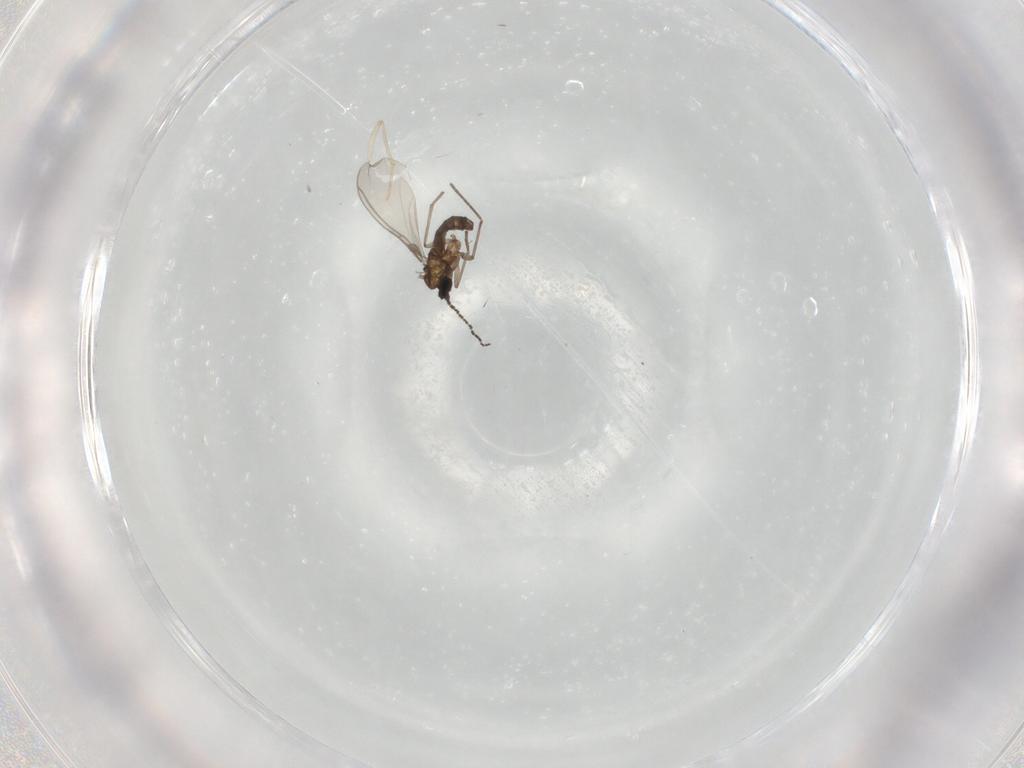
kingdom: Animalia
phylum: Arthropoda
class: Insecta
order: Diptera
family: Sciaridae
